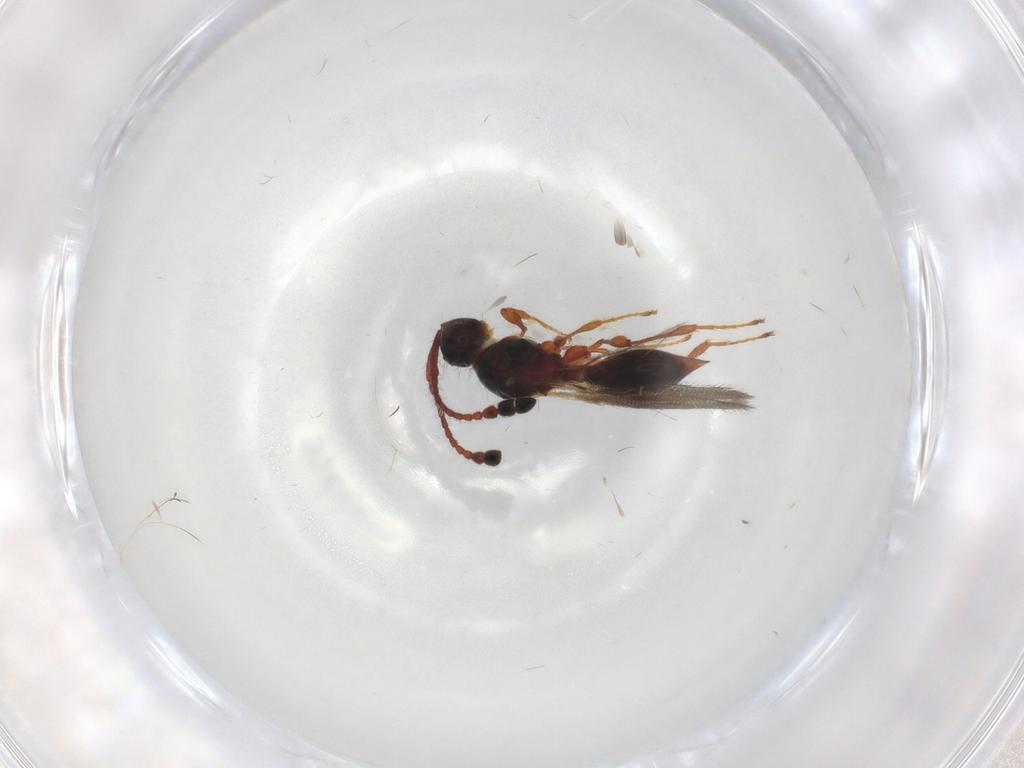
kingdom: Animalia
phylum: Arthropoda
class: Insecta
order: Hymenoptera
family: Diapriidae
